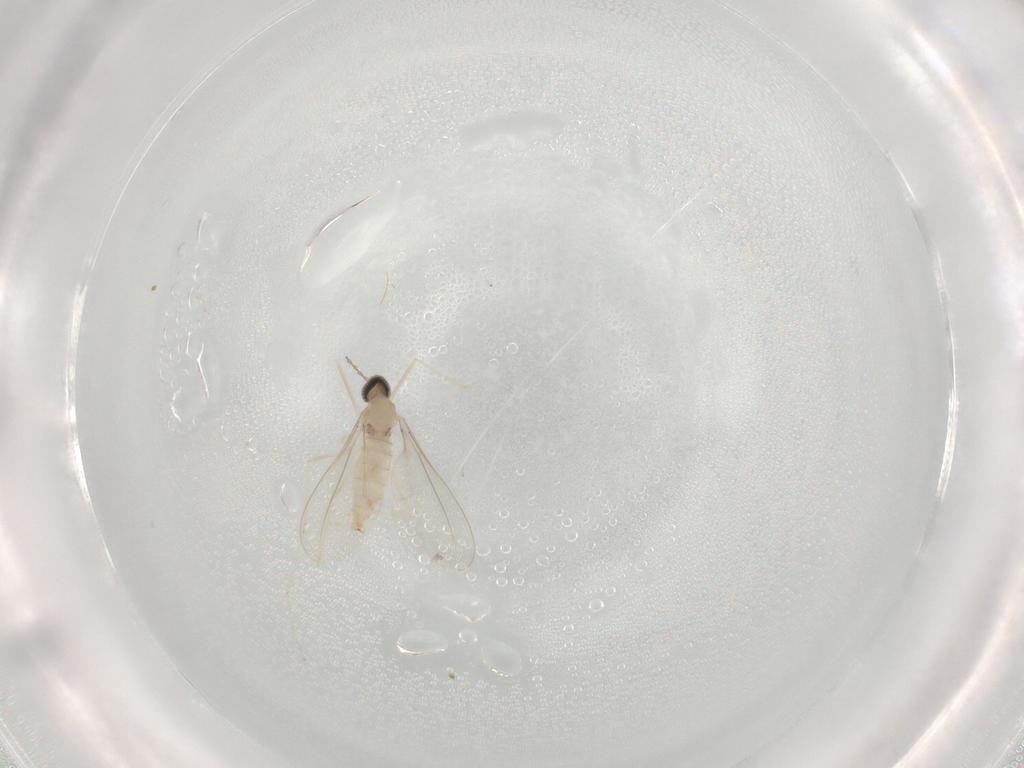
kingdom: Animalia
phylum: Arthropoda
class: Insecta
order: Diptera
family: Cecidomyiidae
